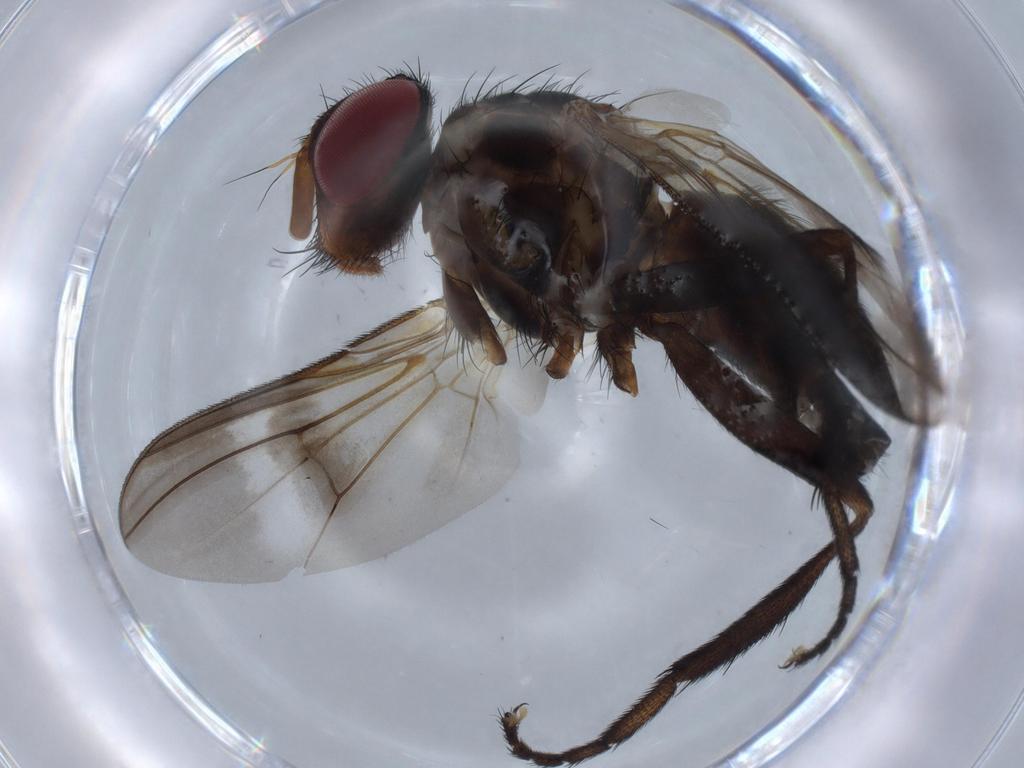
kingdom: Animalia
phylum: Arthropoda
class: Insecta
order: Diptera
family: Calliphoridae
